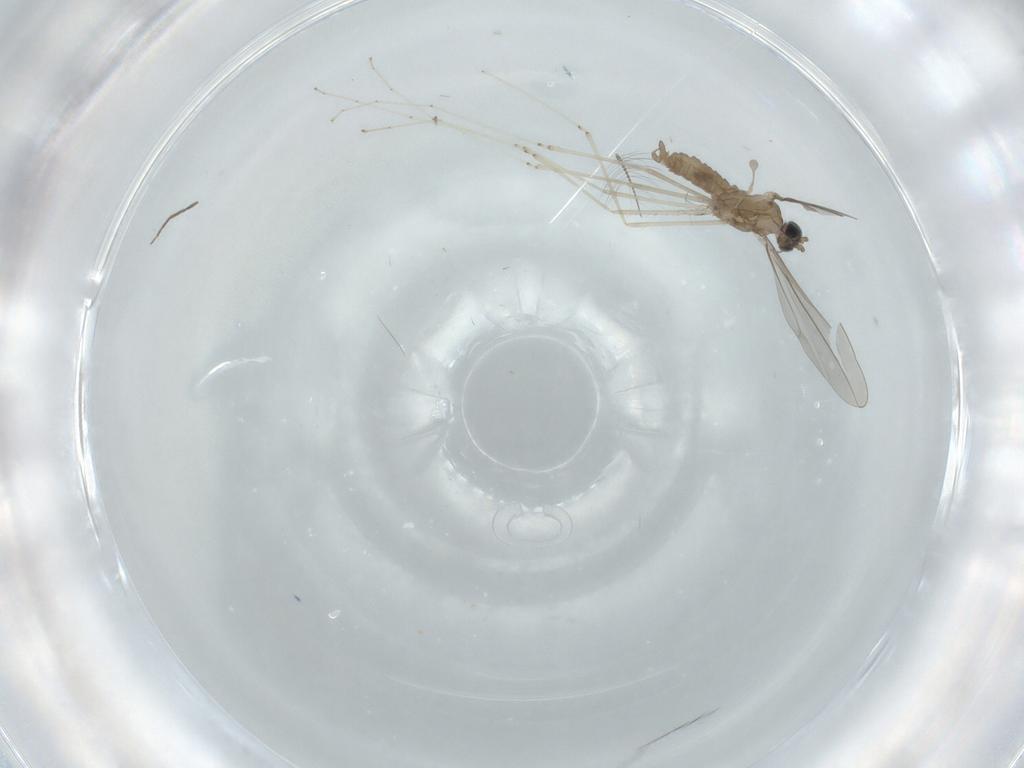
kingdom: Animalia
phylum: Arthropoda
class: Insecta
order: Diptera
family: Cecidomyiidae
